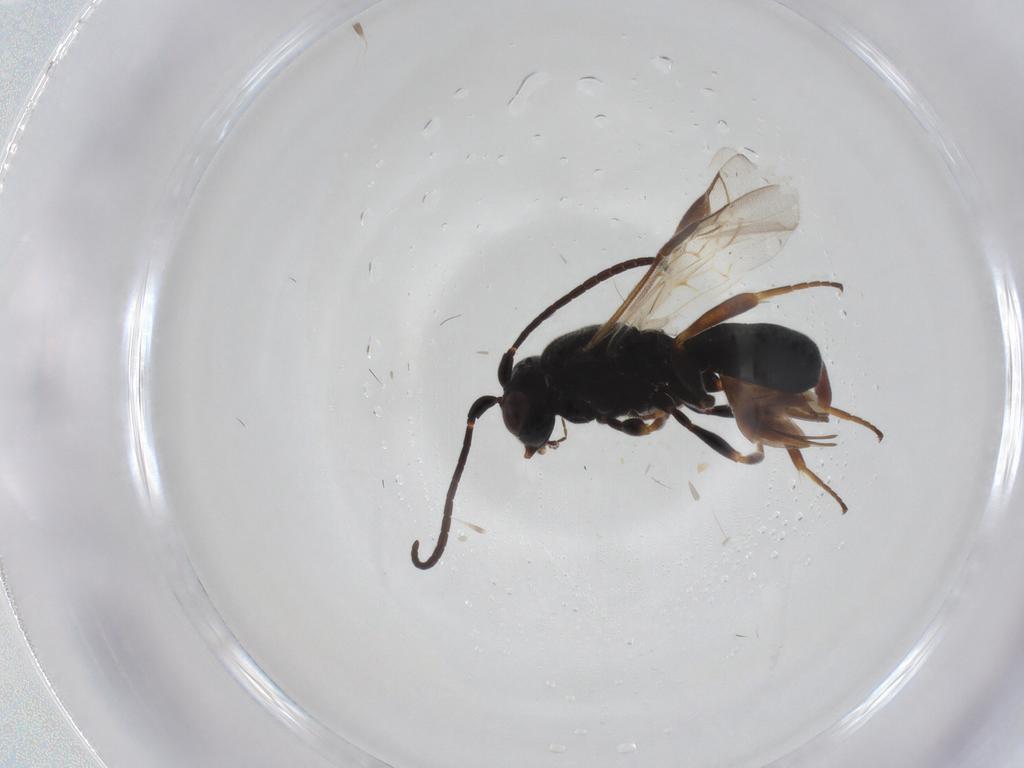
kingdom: Animalia
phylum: Arthropoda
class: Insecta
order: Hymenoptera
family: Braconidae
